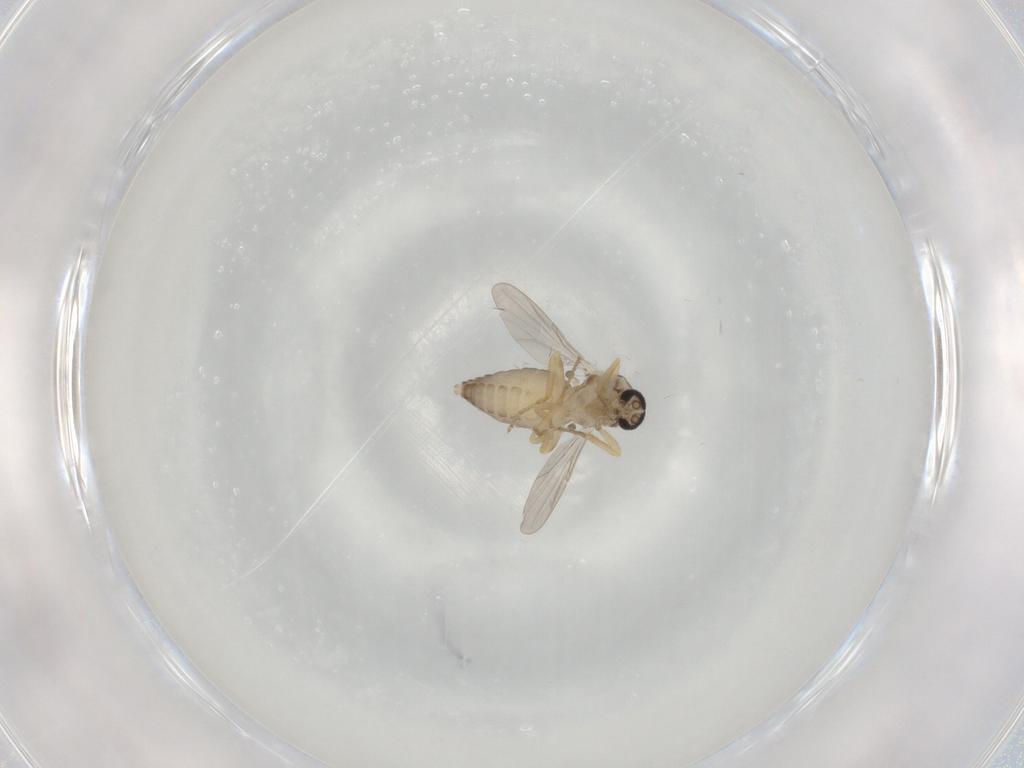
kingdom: Animalia
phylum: Arthropoda
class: Insecta
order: Diptera
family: Ceratopogonidae
